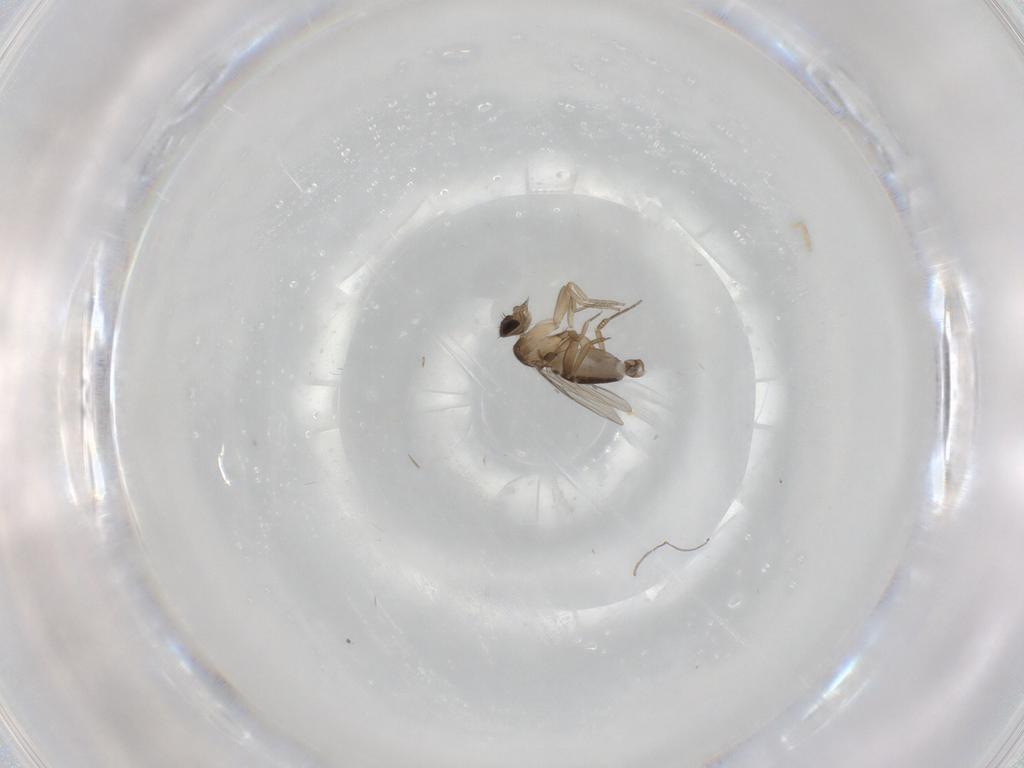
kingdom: Animalia
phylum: Arthropoda
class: Insecta
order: Diptera
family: Phoridae
